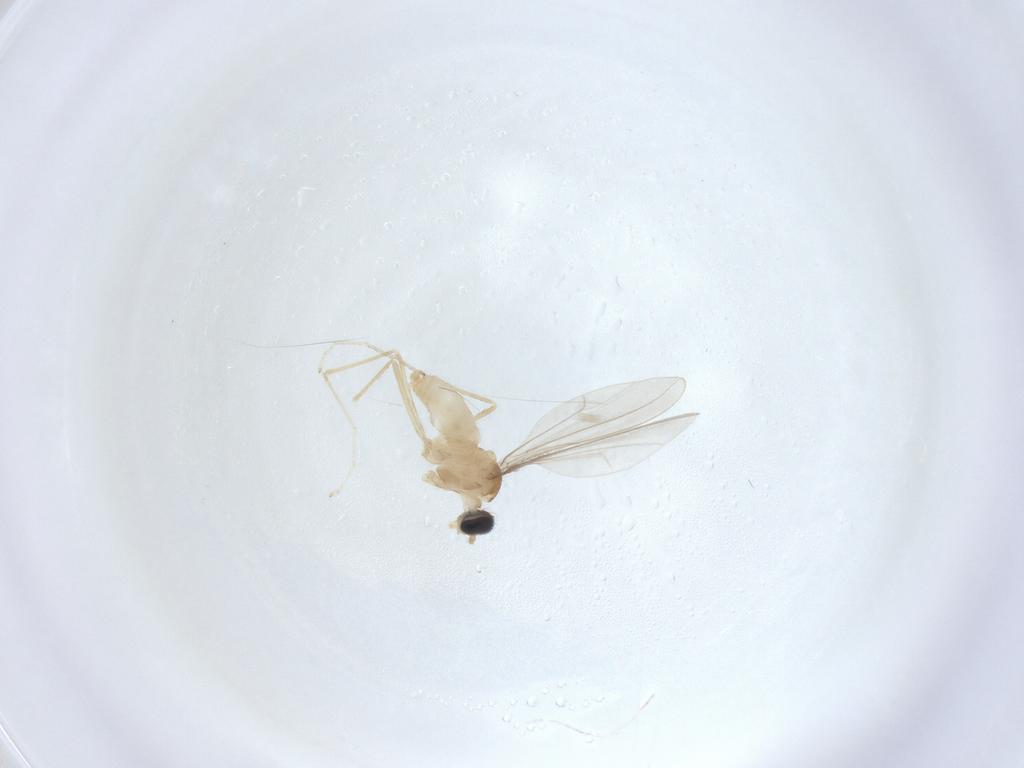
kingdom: Animalia
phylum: Arthropoda
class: Insecta
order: Diptera
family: Cecidomyiidae
